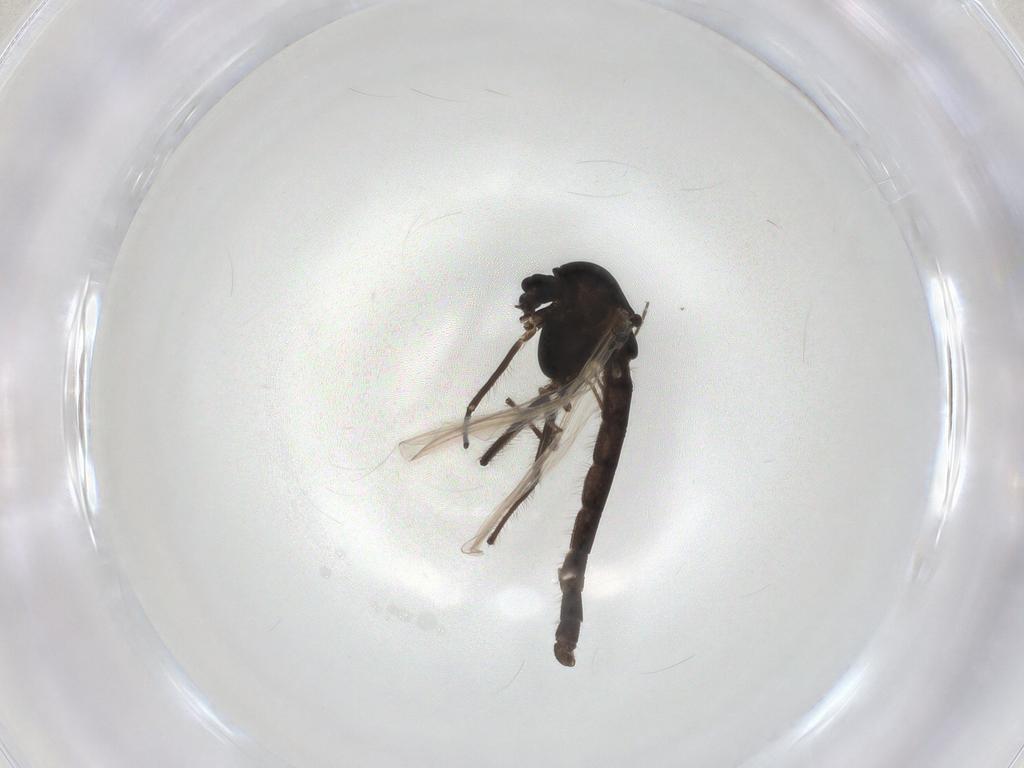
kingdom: Animalia
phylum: Arthropoda
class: Insecta
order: Diptera
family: Chironomidae
